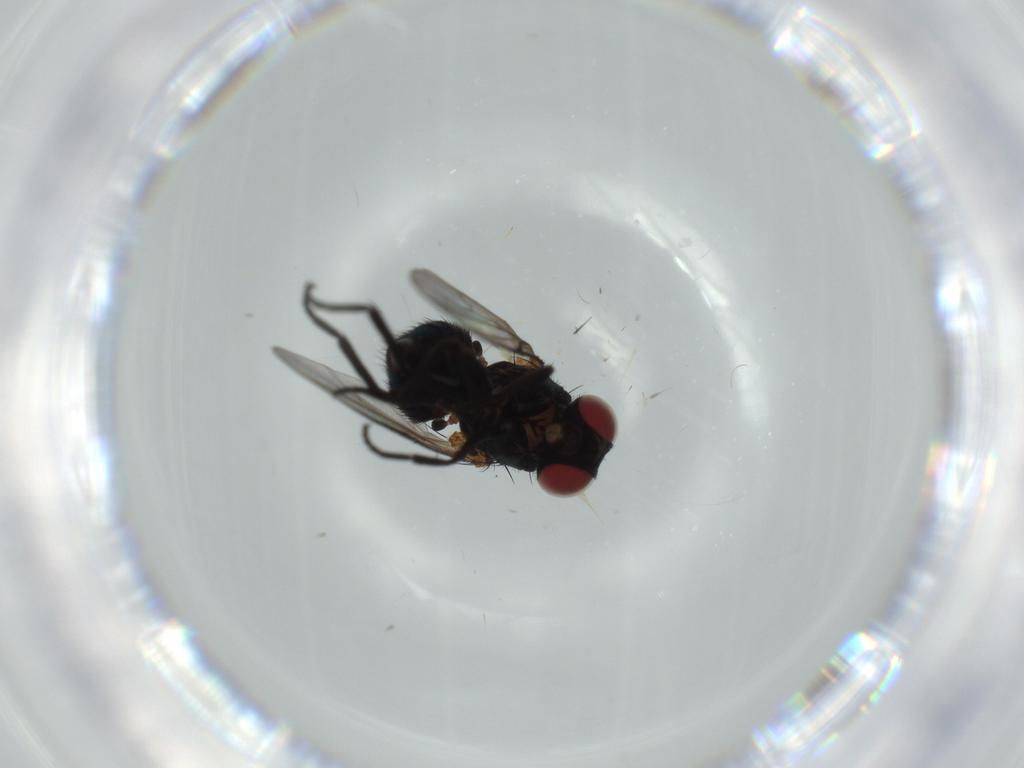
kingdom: Animalia
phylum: Arthropoda
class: Insecta
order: Diptera
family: Agromyzidae
